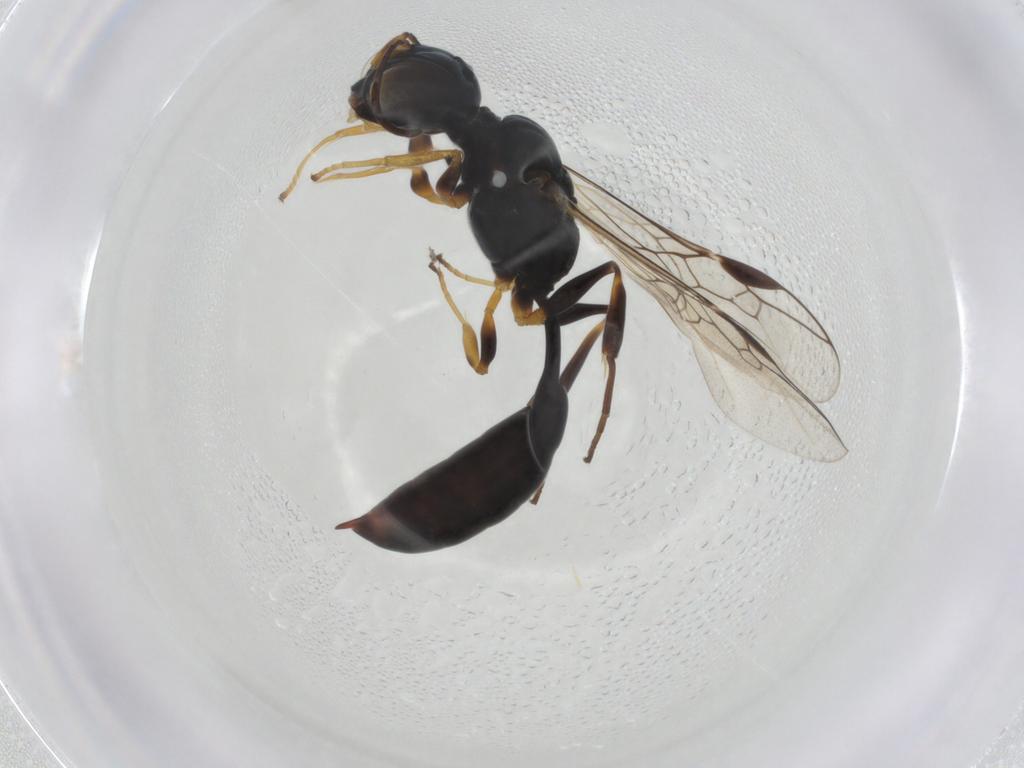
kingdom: Animalia
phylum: Arthropoda
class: Insecta
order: Hymenoptera
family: Crabronidae
